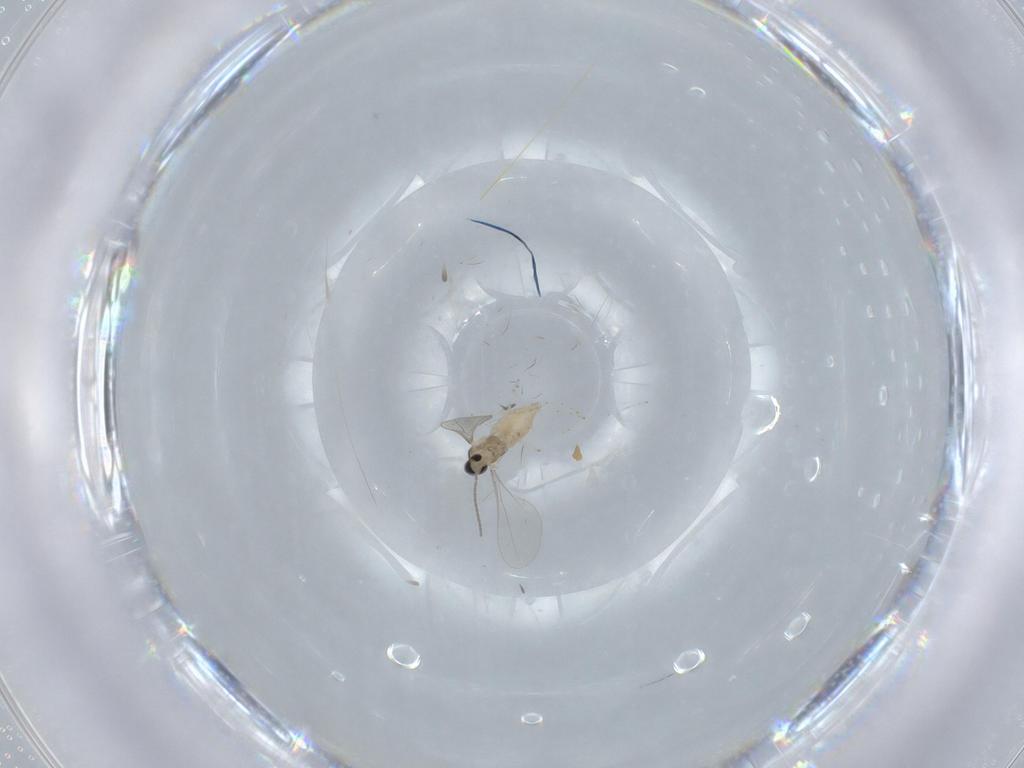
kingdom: Animalia
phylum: Arthropoda
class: Insecta
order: Diptera
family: Cecidomyiidae
